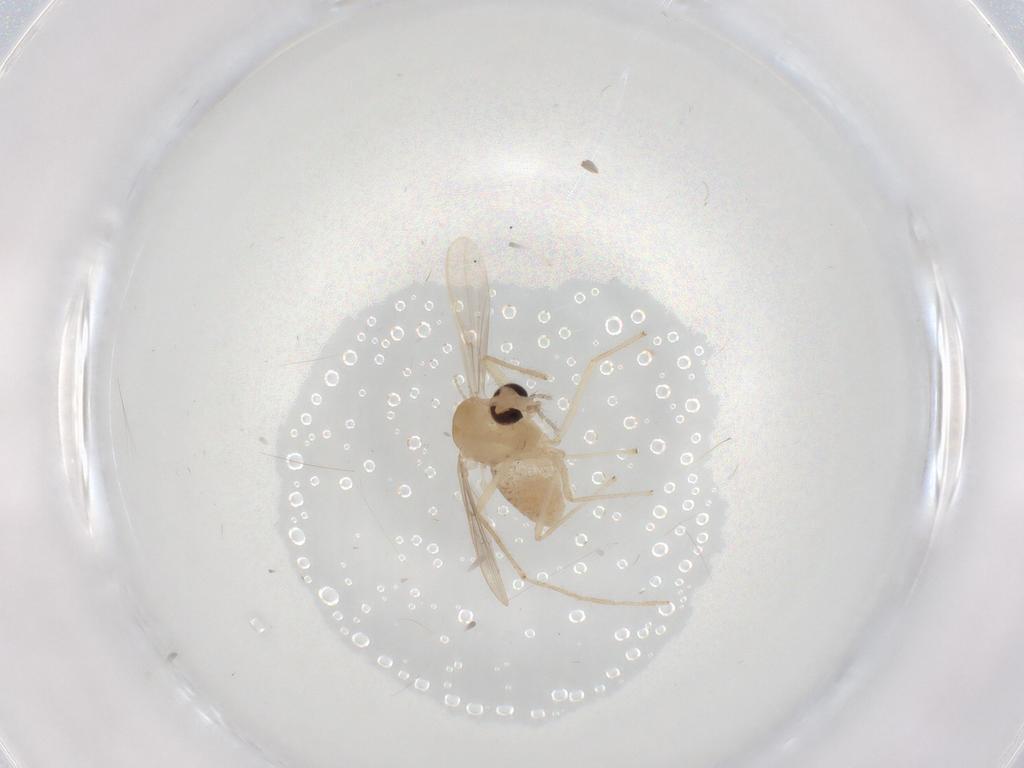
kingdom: Animalia
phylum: Arthropoda
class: Insecta
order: Diptera
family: Chironomidae
